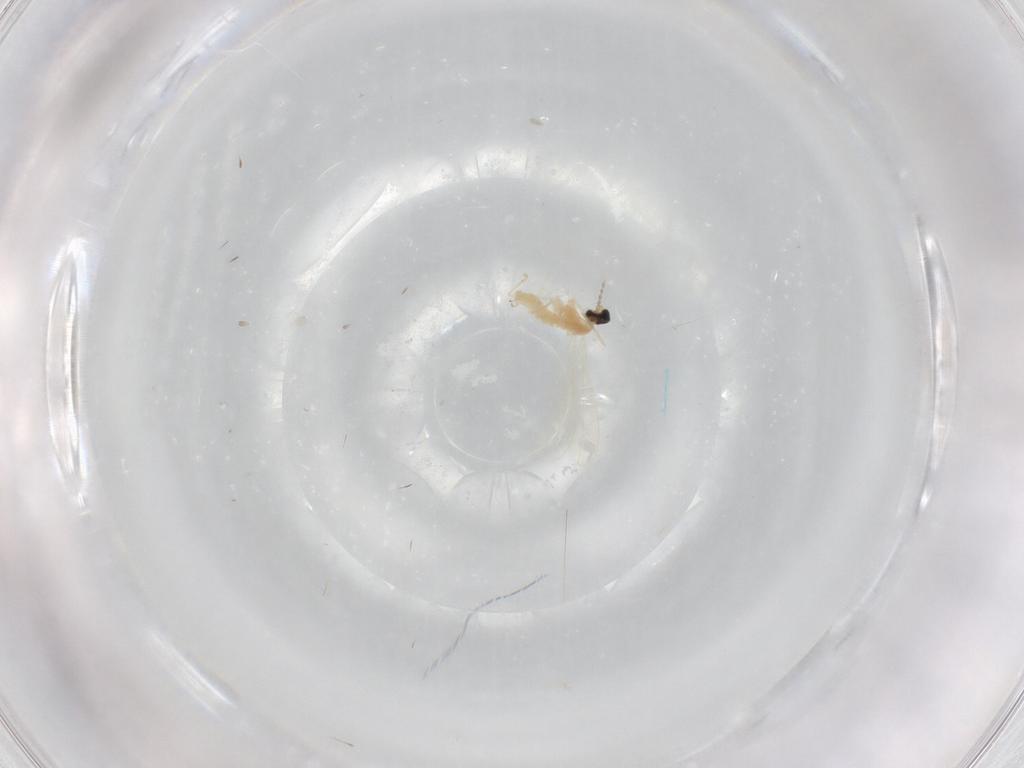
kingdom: Animalia
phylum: Arthropoda
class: Insecta
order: Diptera
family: Cecidomyiidae
